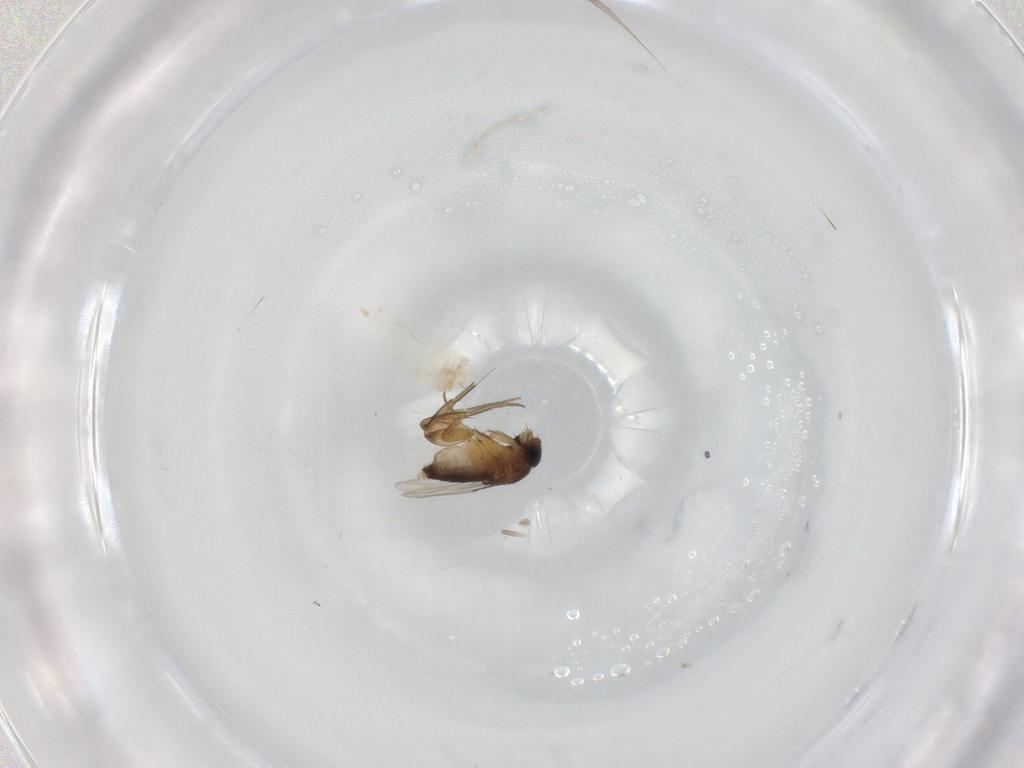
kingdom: Animalia
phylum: Arthropoda
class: Insecta
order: Diptera
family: Phoridae
